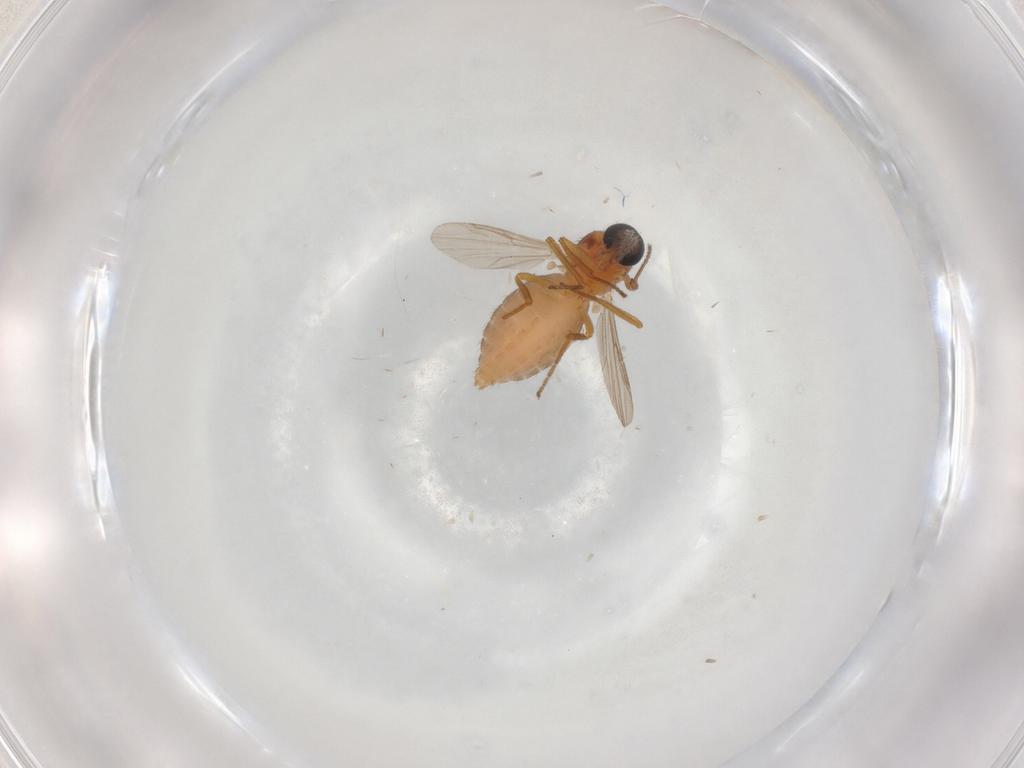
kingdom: Animalia
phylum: Arthropoda
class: Insecta
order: Diptera
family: Ceratopogonidae
